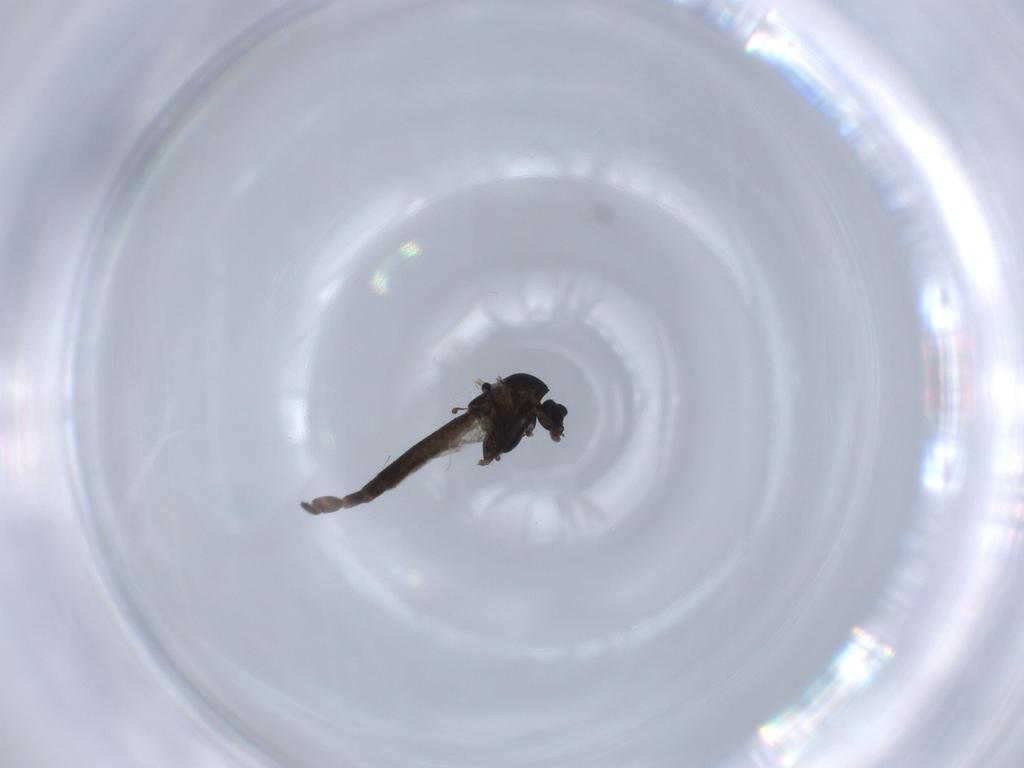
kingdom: Animalia
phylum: Arthropoda
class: Insecta
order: Diptera
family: Chironomidae
